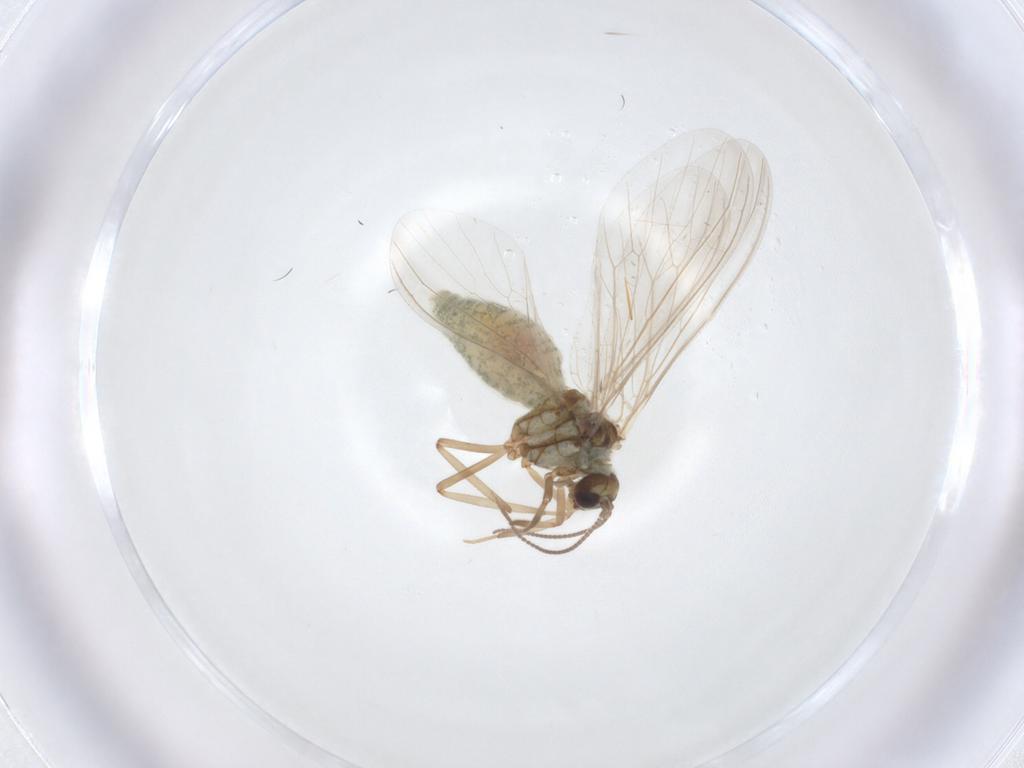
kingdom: Animalia
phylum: Arthropoda
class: Insecta
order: Neuroptera
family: Coniopterygidae
